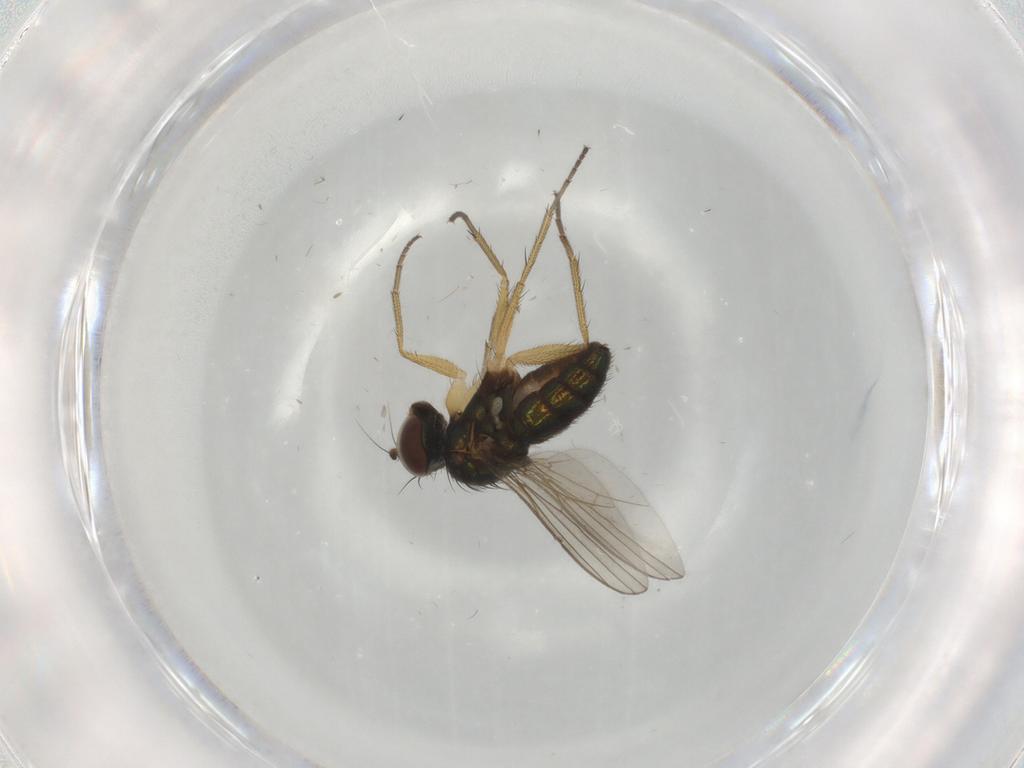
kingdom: Animalia
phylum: Arthropoda
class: Insecta
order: Diptera
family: Dolichopodidae
